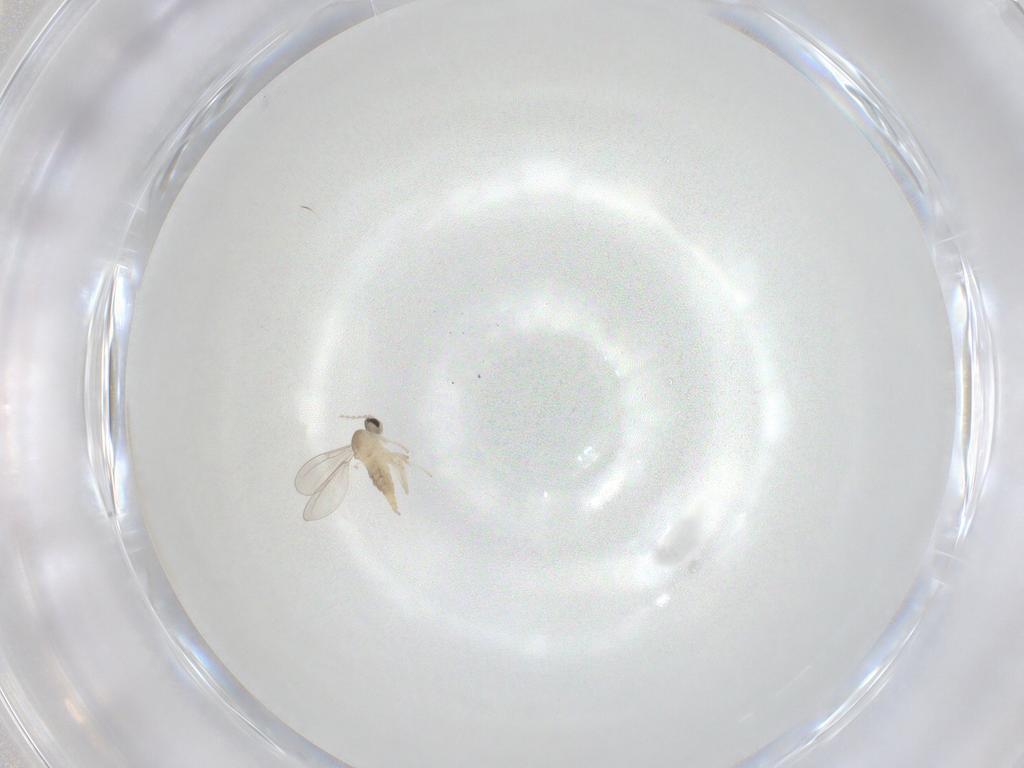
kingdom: Animalia
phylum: Arthropoda
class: Insecta
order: Diptera
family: Cecidomyiidae
